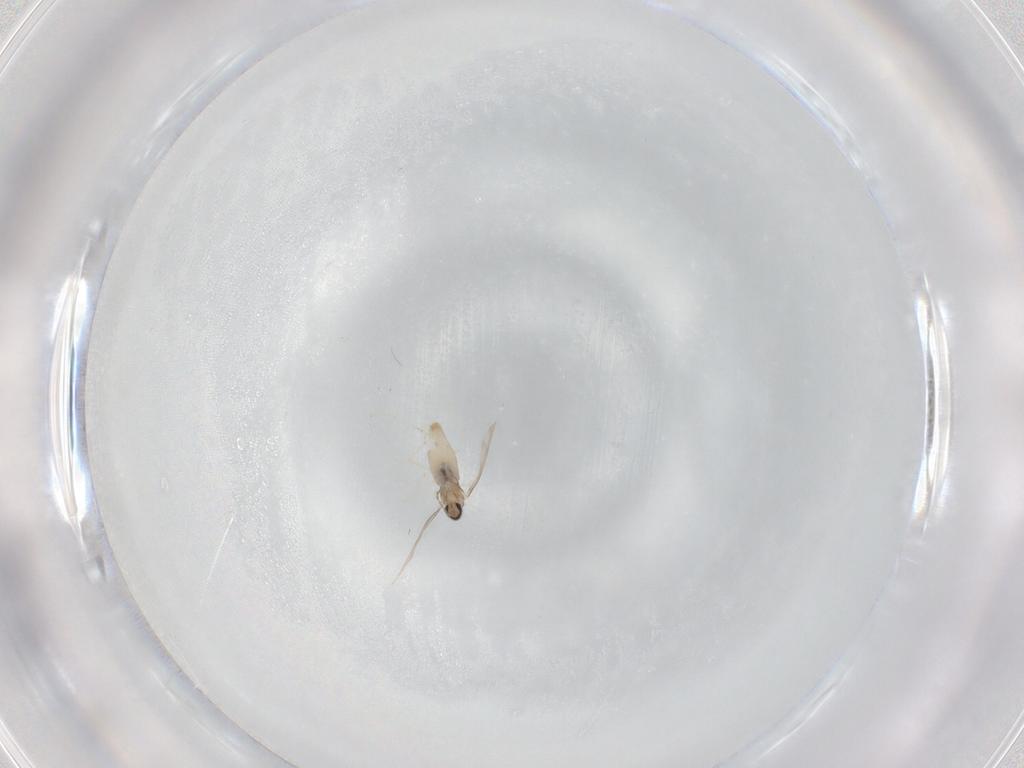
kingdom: Animalia
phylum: Arthropoda
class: Insecta
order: Diptera
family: Cecidomyiidae
